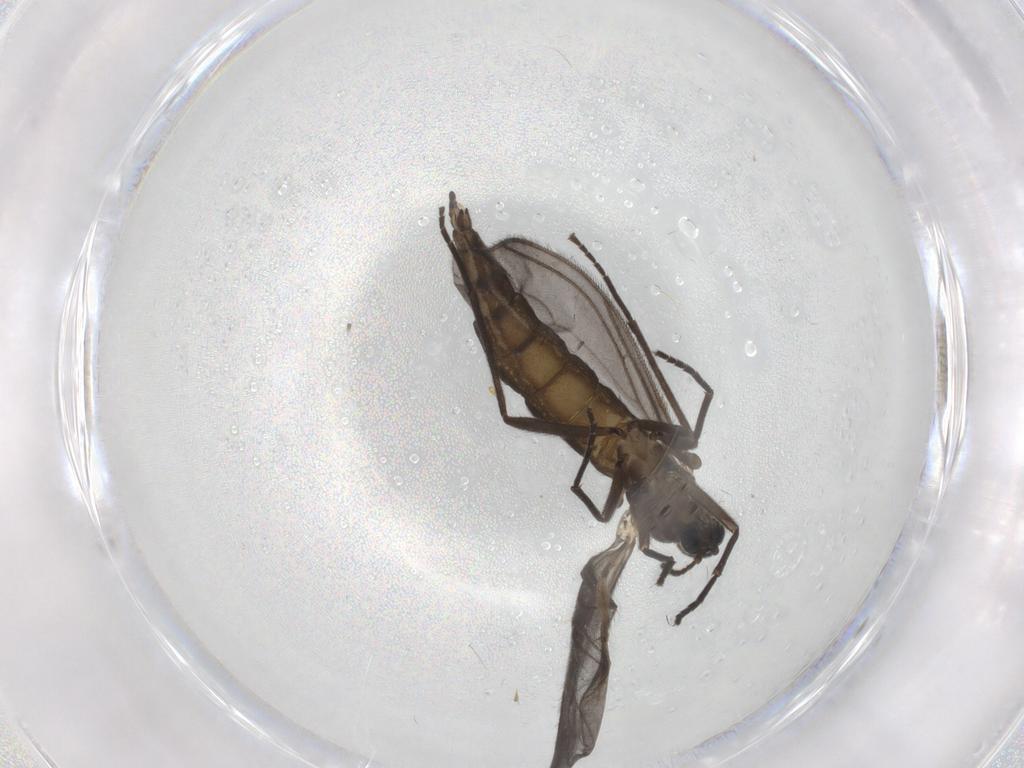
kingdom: Animalia
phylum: Arthropoda
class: Insecta
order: Diptera
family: Sciaridae
